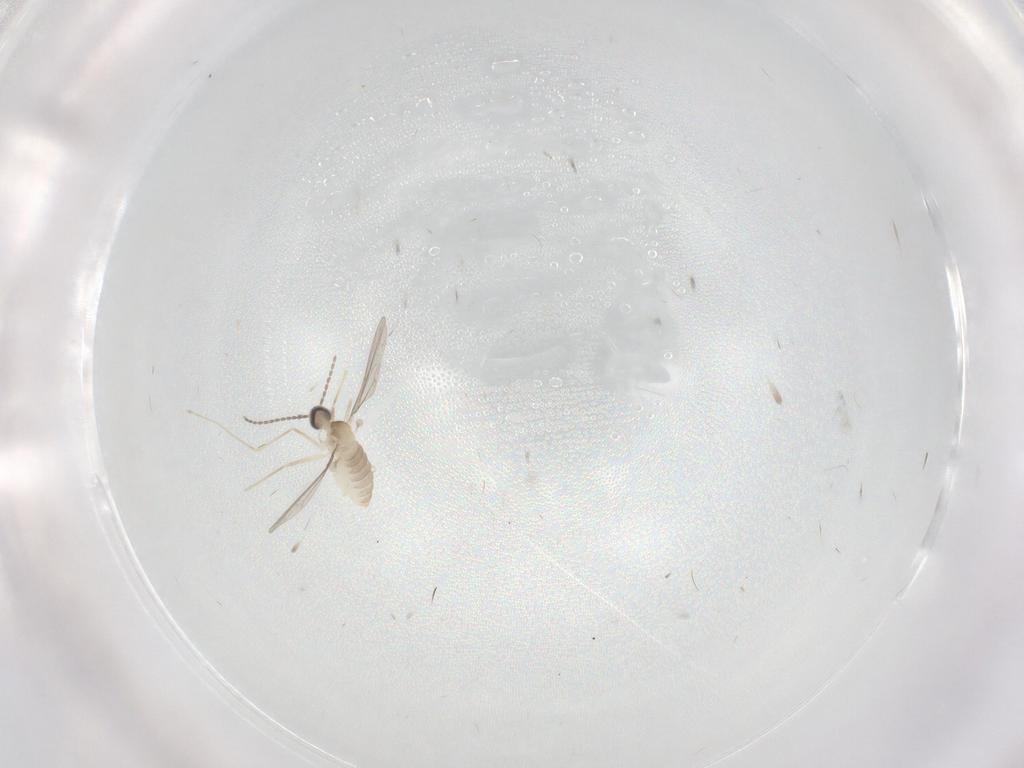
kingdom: Animalia
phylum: Arthropoda
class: Insecta
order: Diptera
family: Cecidomyiidae
